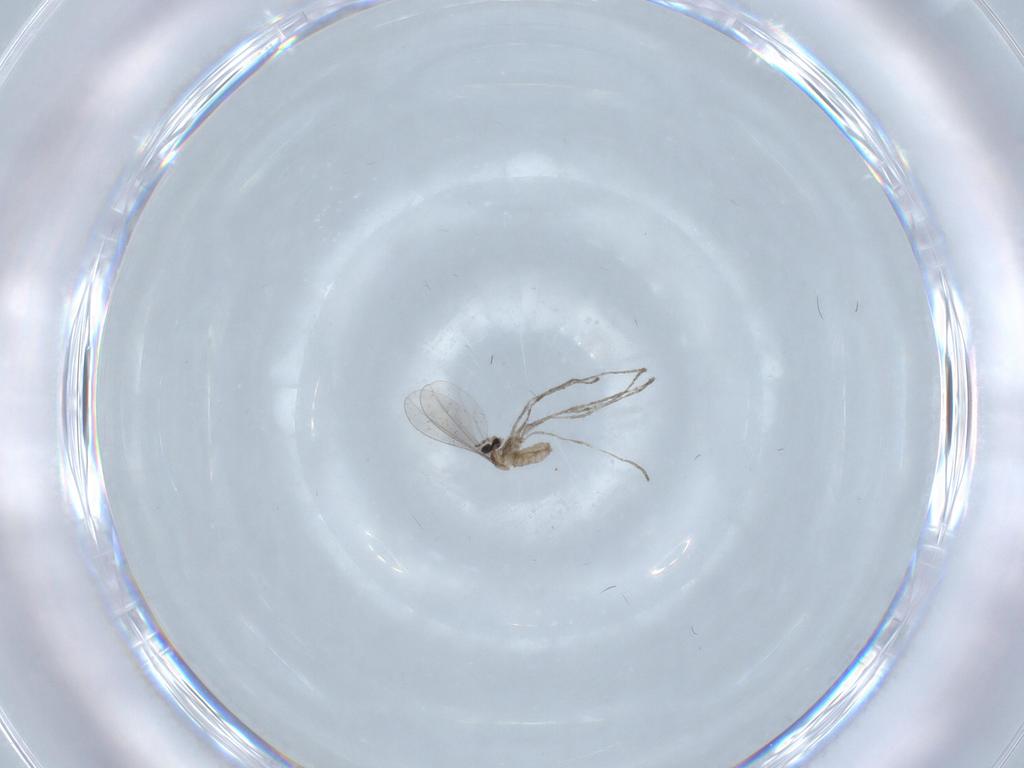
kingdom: Animalia
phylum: Arthropoda
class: Insecta
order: Diptera
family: Cecidomyiidae
